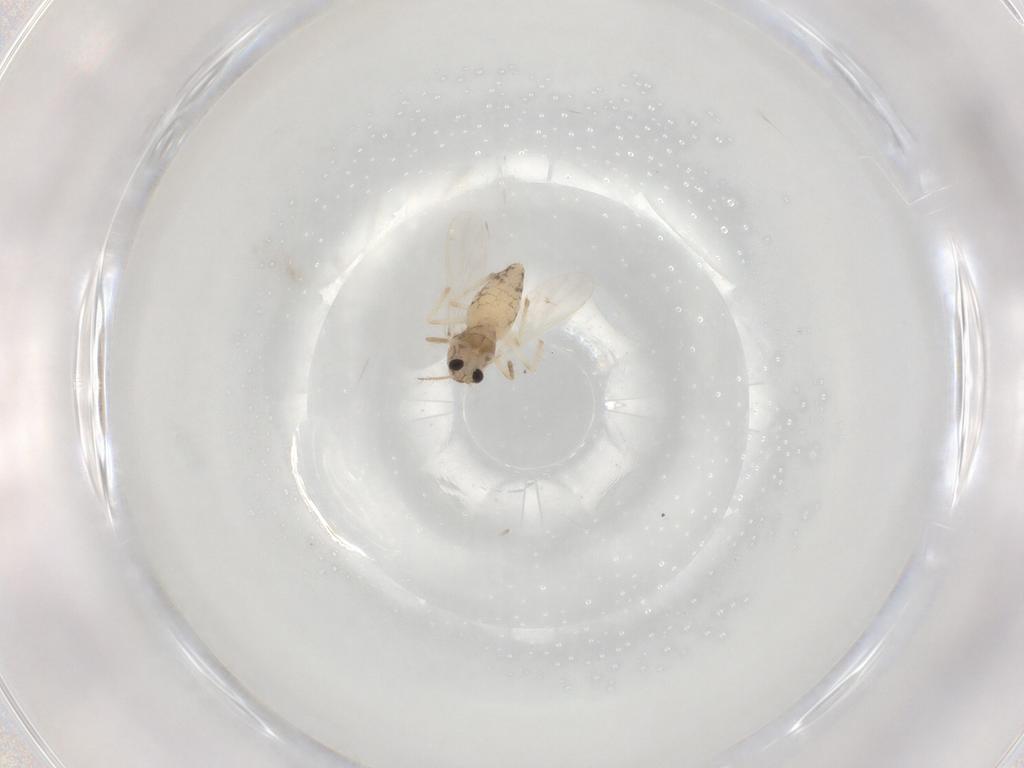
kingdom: Animalia
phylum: Arthropoda
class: Insecta
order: Diptera
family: Chironomidae
